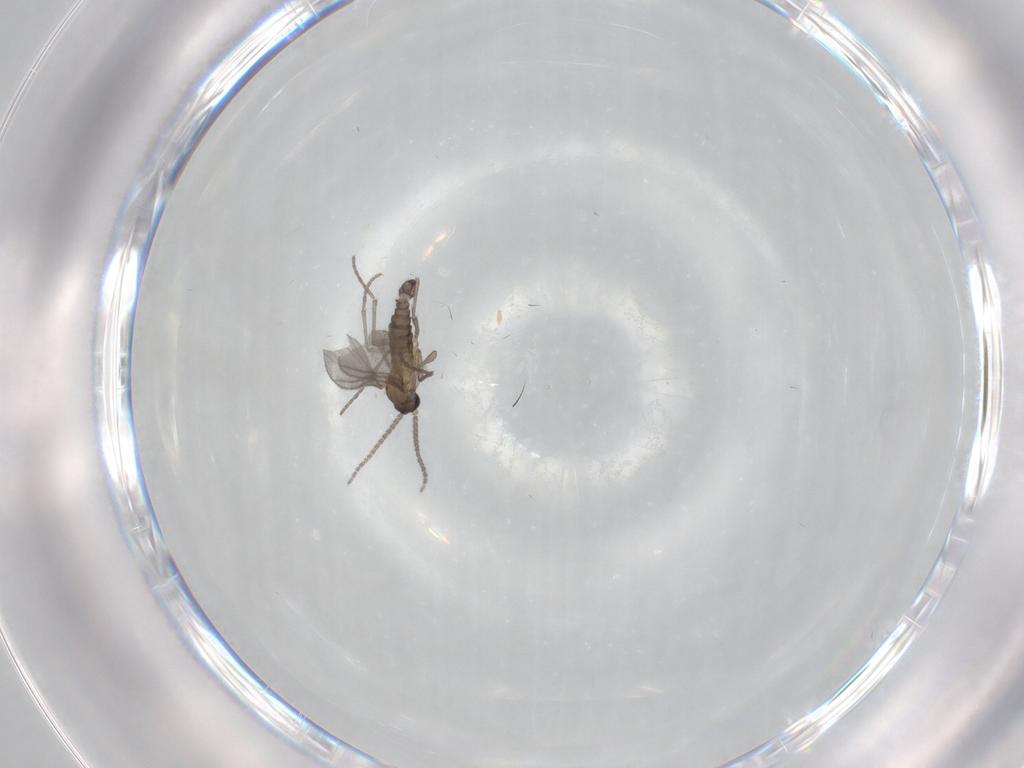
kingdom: Animalia
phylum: Arthropoda
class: Insecta
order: Diptera
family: Sciaridae
